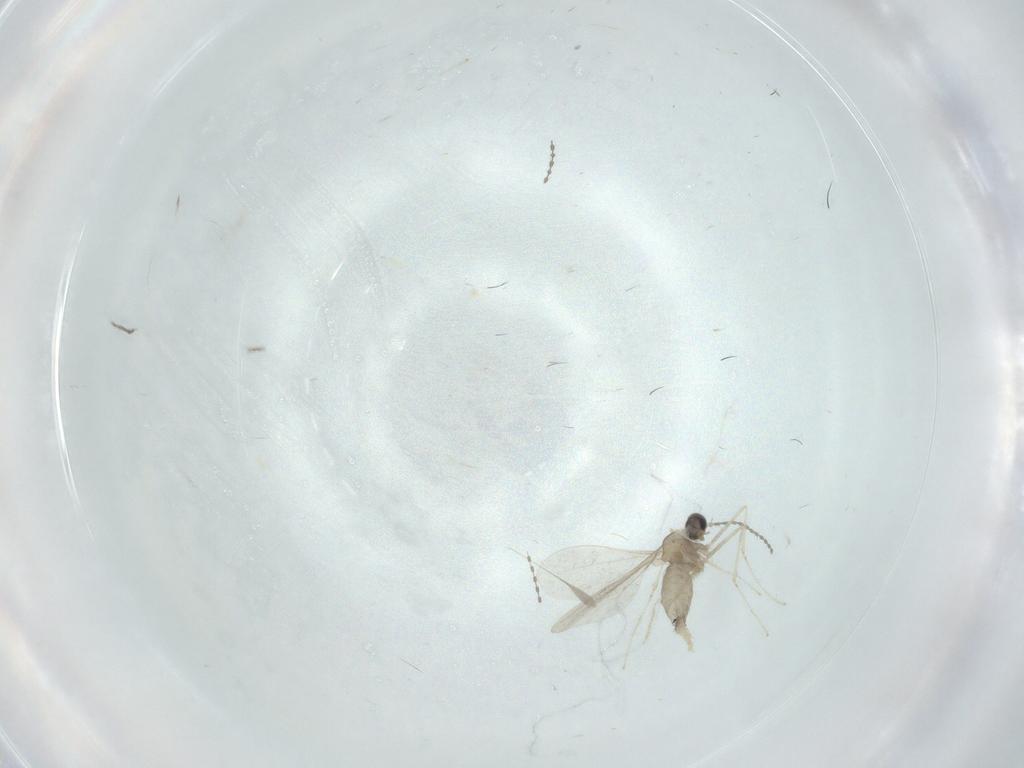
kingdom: Animalia
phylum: Arthropoda
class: Insecta
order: Diptera
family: Cecidomyiidae
